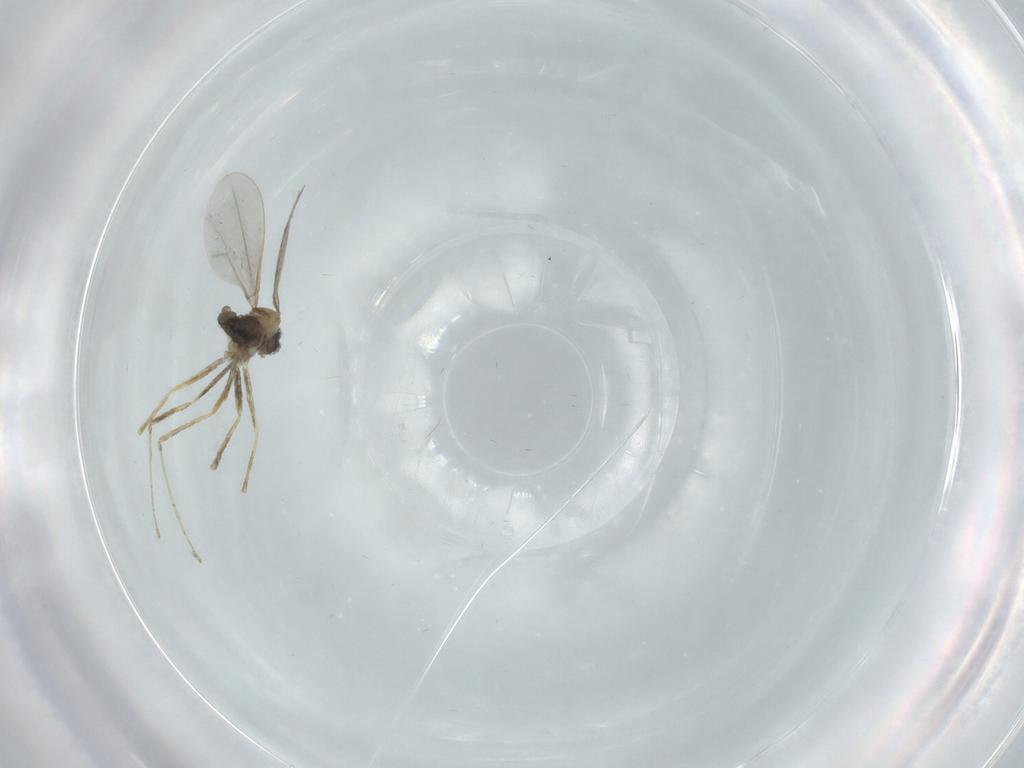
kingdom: Animalia
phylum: Arthropoda
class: Insecta
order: Diptera
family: Cecidomyiidae
